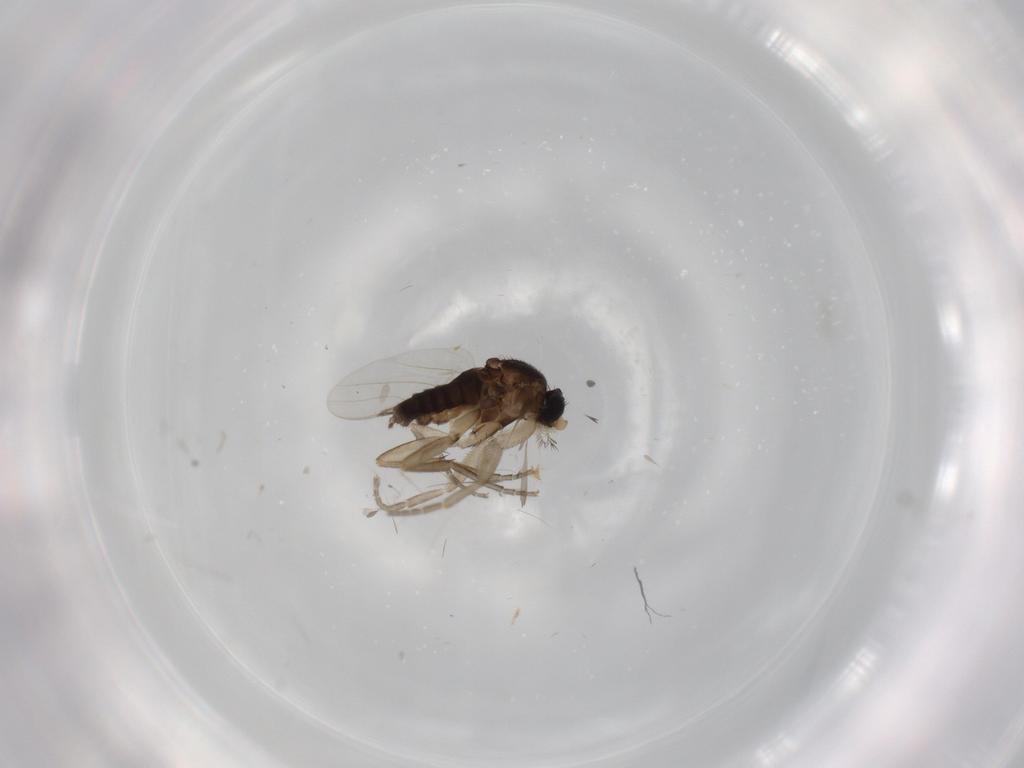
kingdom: Animalia
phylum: Arthropoda
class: Insecta
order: Diptera
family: Phoridae
